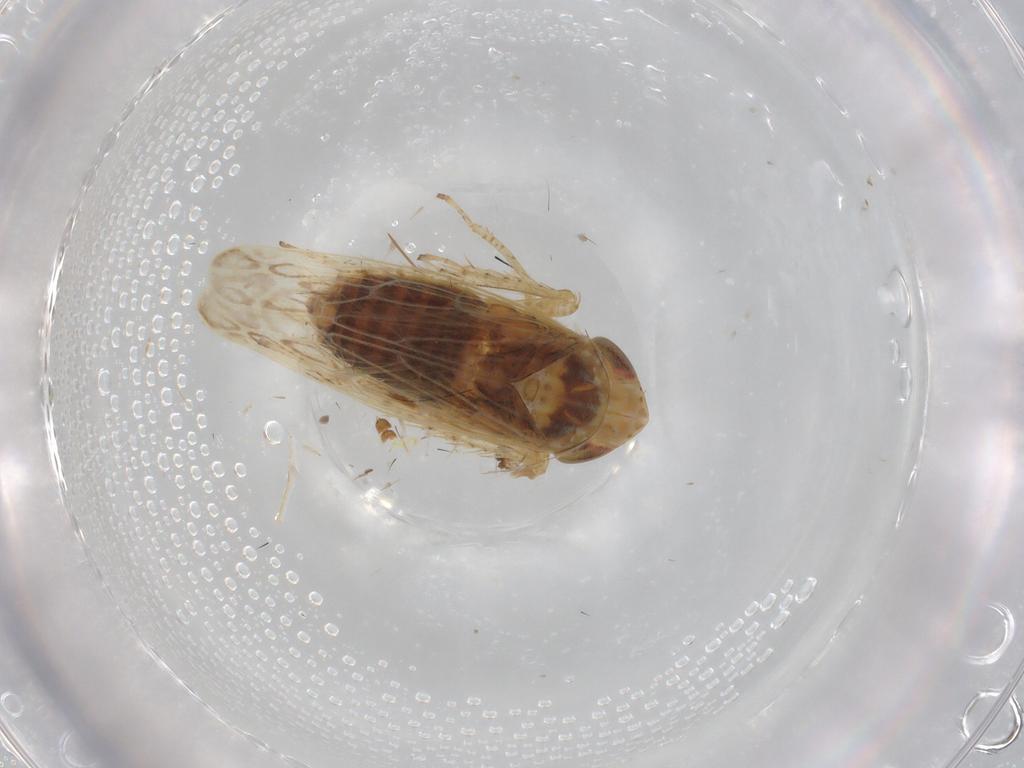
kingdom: Animalia
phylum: Arthropoda
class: Insecta
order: Hemiptera
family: Cicadellidae
